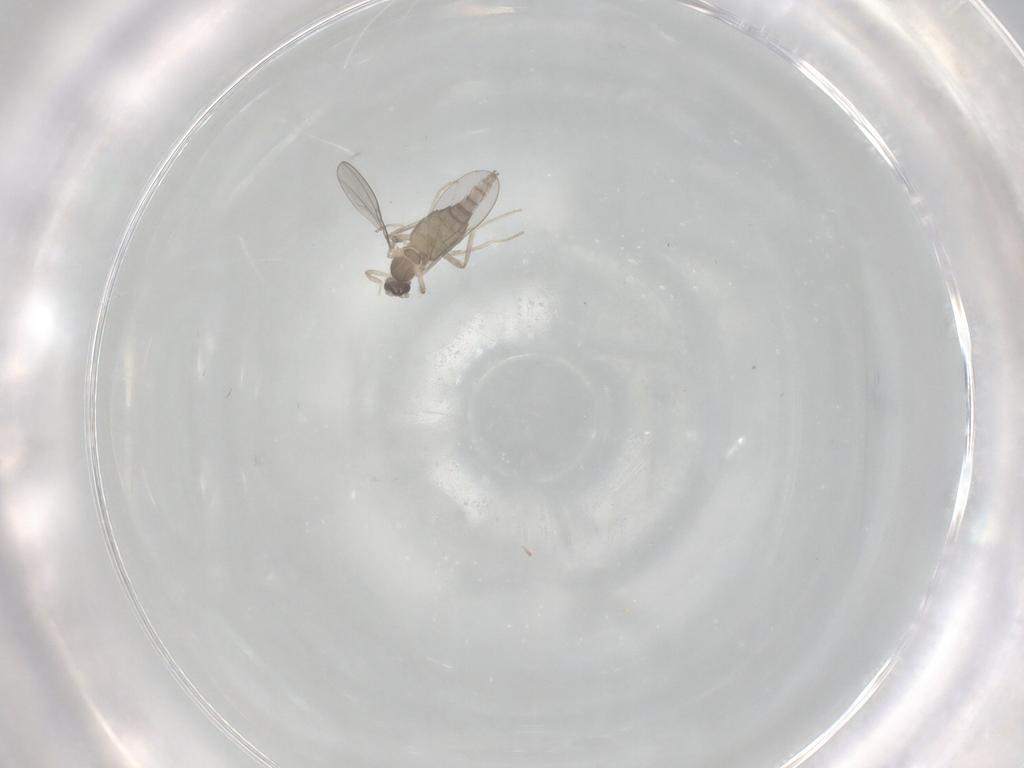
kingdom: Animalia
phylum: Arthropoda
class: Insecta
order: Diptera
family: Cecidomyiidae
